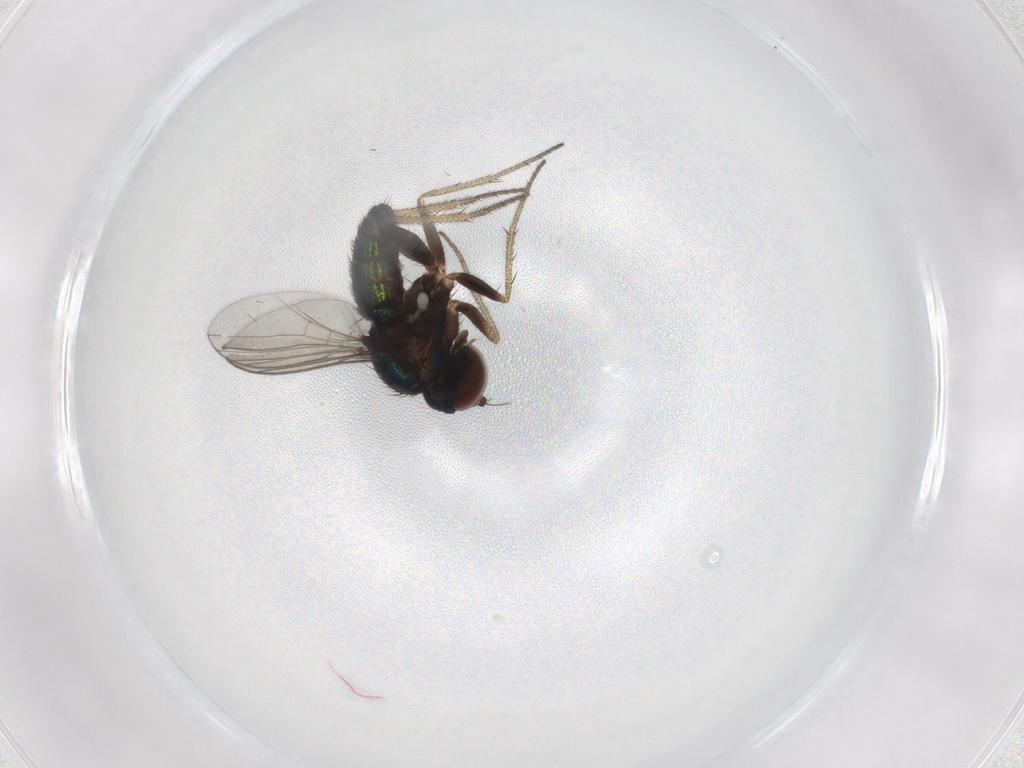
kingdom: Animalia
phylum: Arthropoda
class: Insecta
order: Diptera
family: Dolichopodidae
